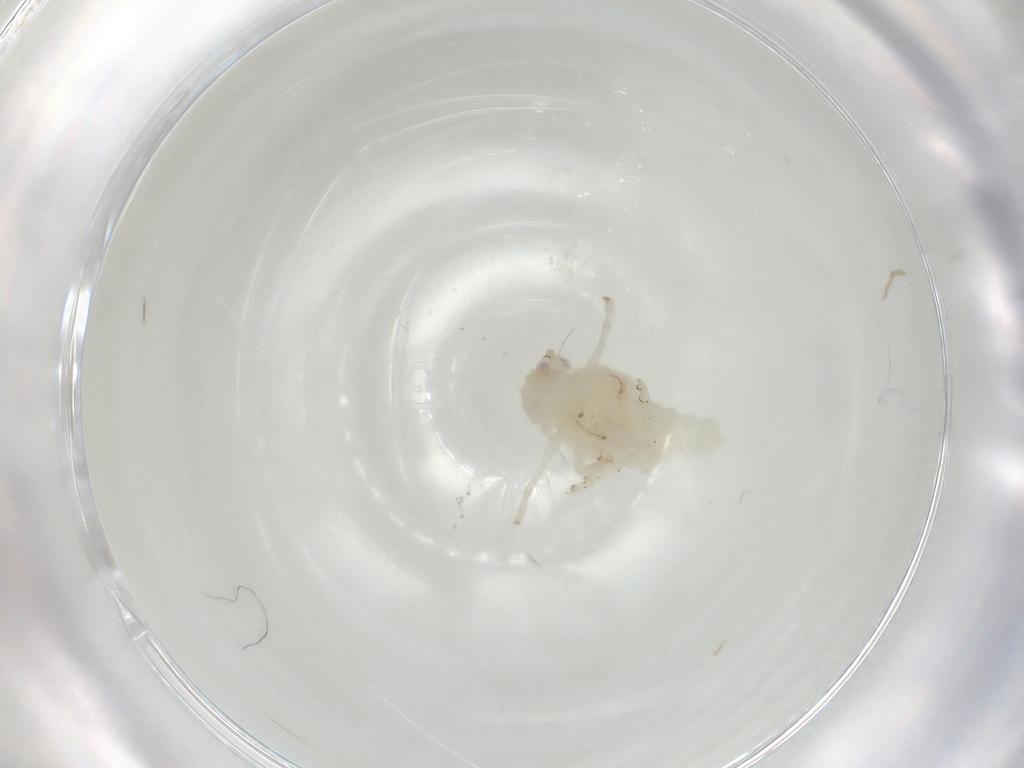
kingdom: Animalia
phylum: Arthropoda
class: Insecta
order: Hemiptera
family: Nogodinidae
